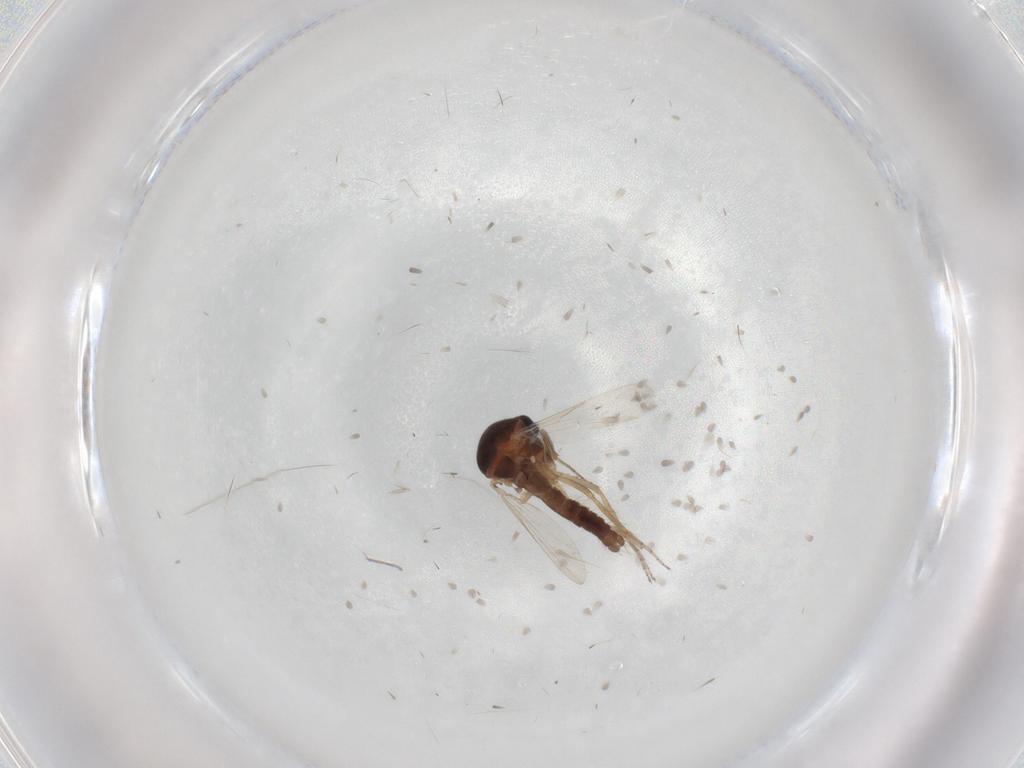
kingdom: Animalia
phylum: Arthropoda
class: Insecta
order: Diptera
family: Ceratopogonidae
